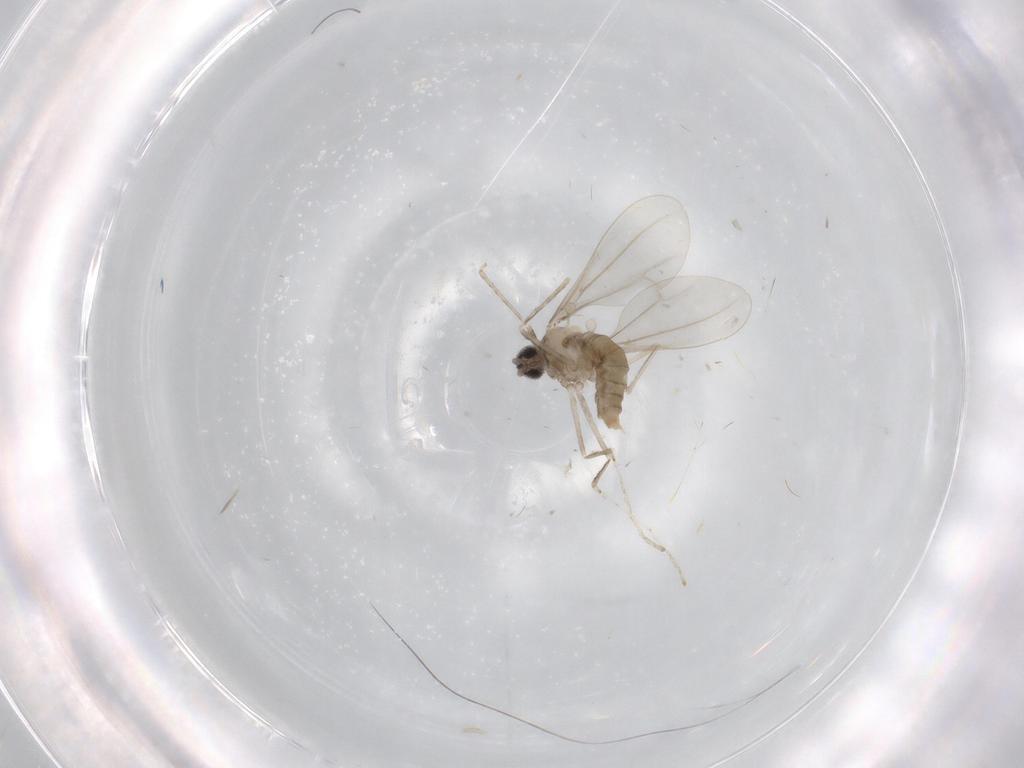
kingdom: Animalia
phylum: Arthropoda
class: Insecta
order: Diptera
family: Cecidomyiidae
